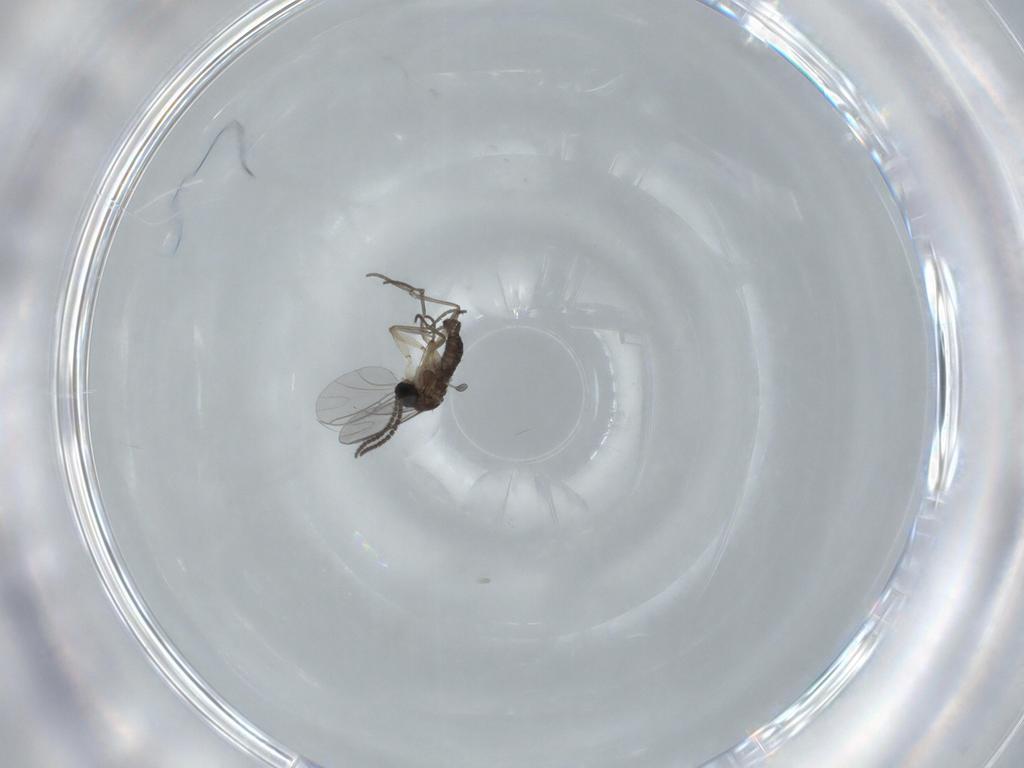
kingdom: Animalia
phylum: Arthropoda
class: Insecta
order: Diptera
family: Sciaridae
